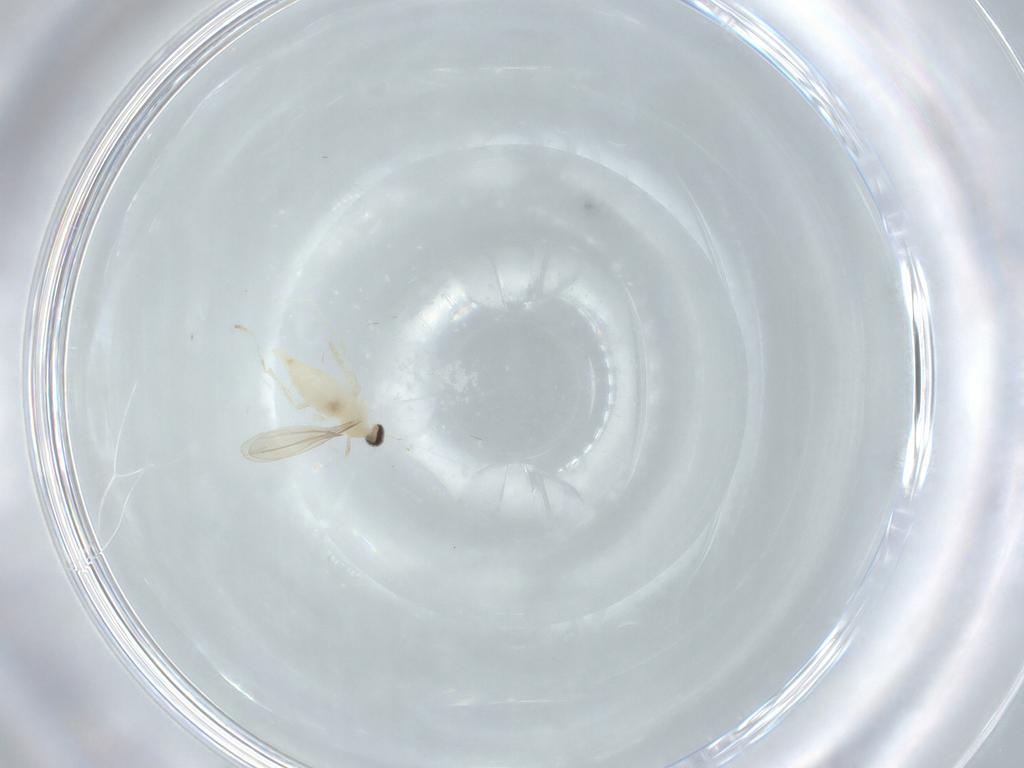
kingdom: Animalia
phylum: Arthropoda
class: Insecta
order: Diptera
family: Cecidomyiidae
